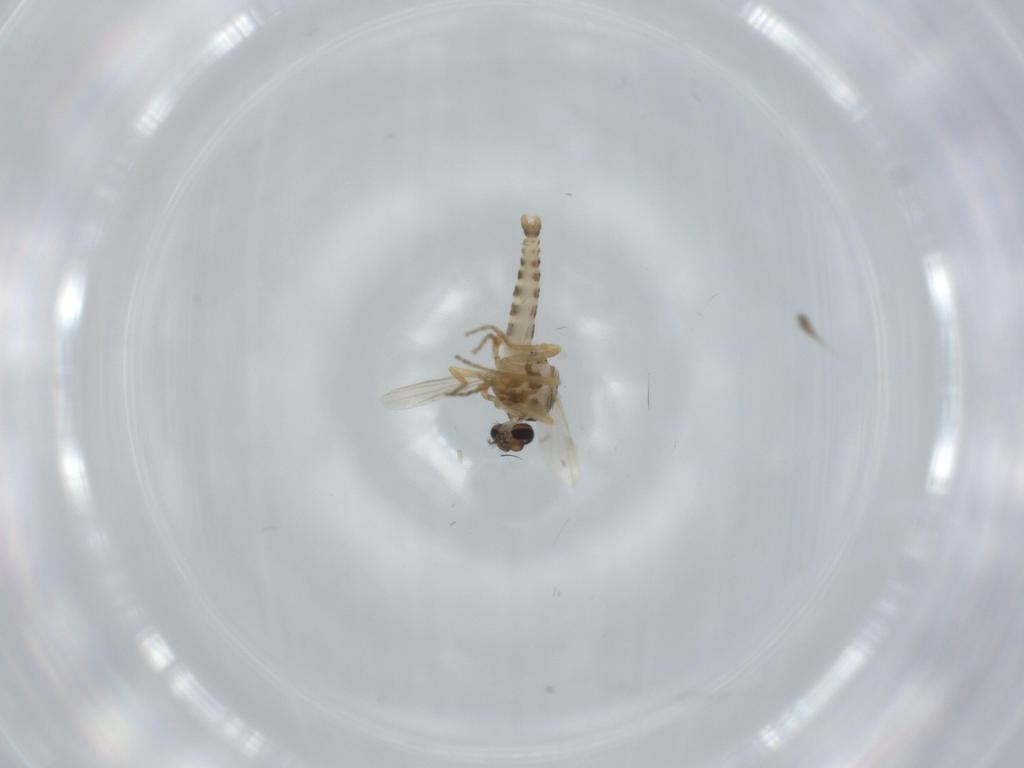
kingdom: Animalia
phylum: Arthropoda
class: Insecta
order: Diptera
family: Ceratopogonidae
